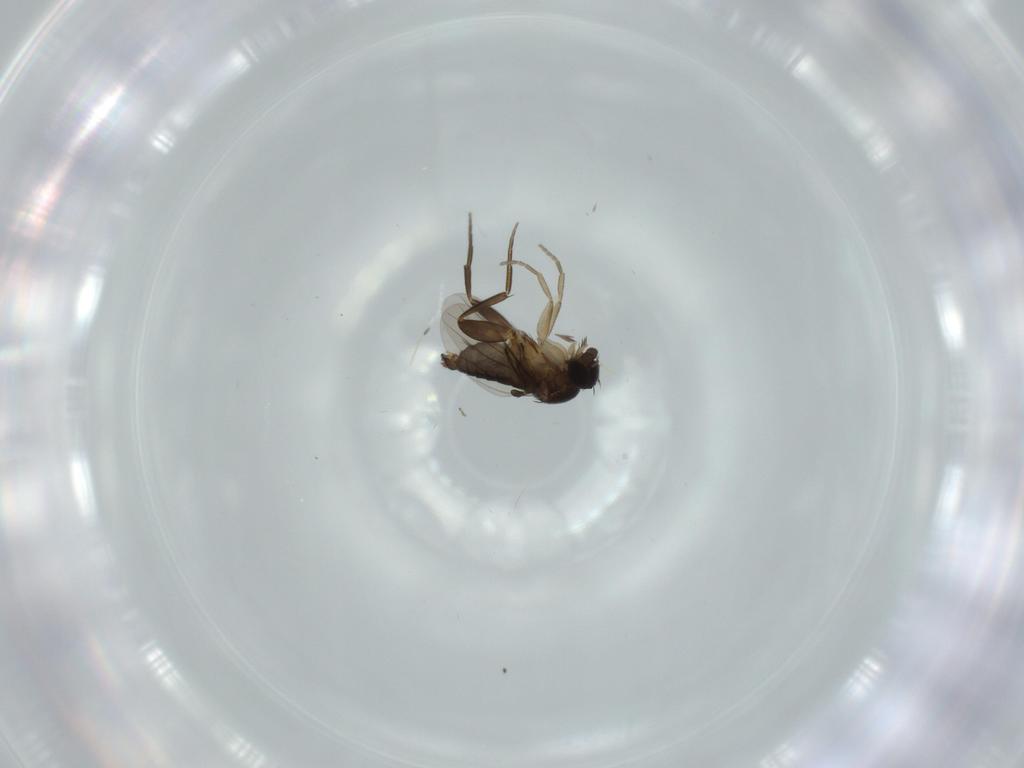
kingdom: Animalia
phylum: Arthropoda
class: Insecta
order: Diptera
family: Phoridae
